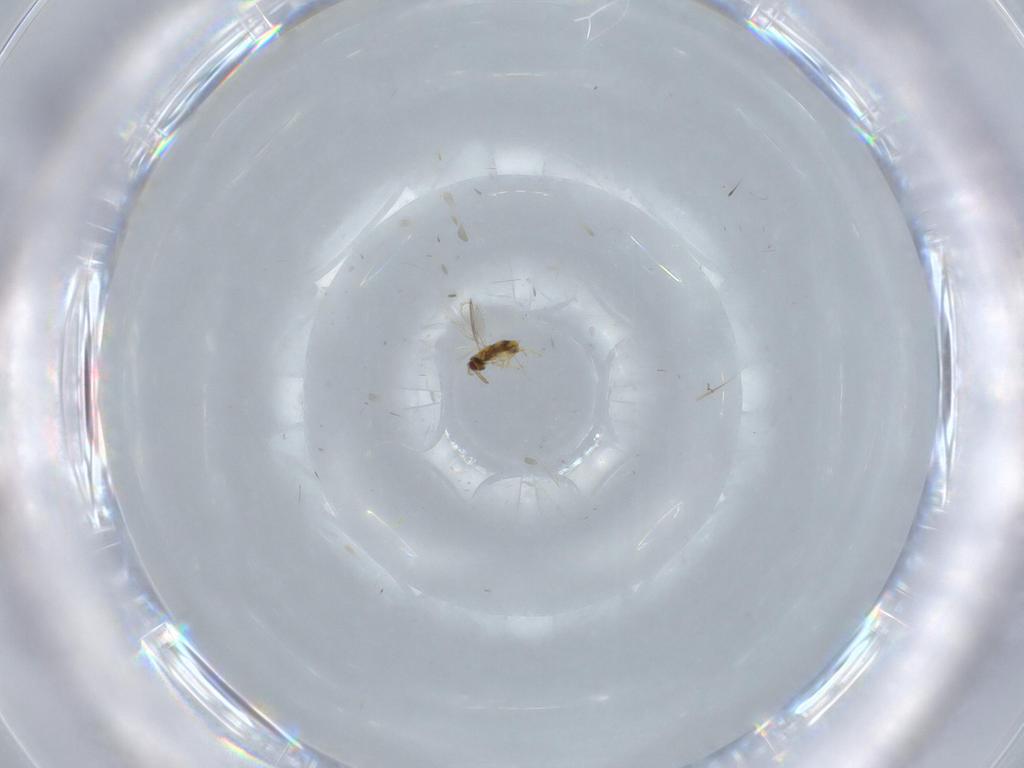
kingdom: Animalia
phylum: Arthropoda
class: Insecta
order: Hymenoptera
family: Aphelinidae
